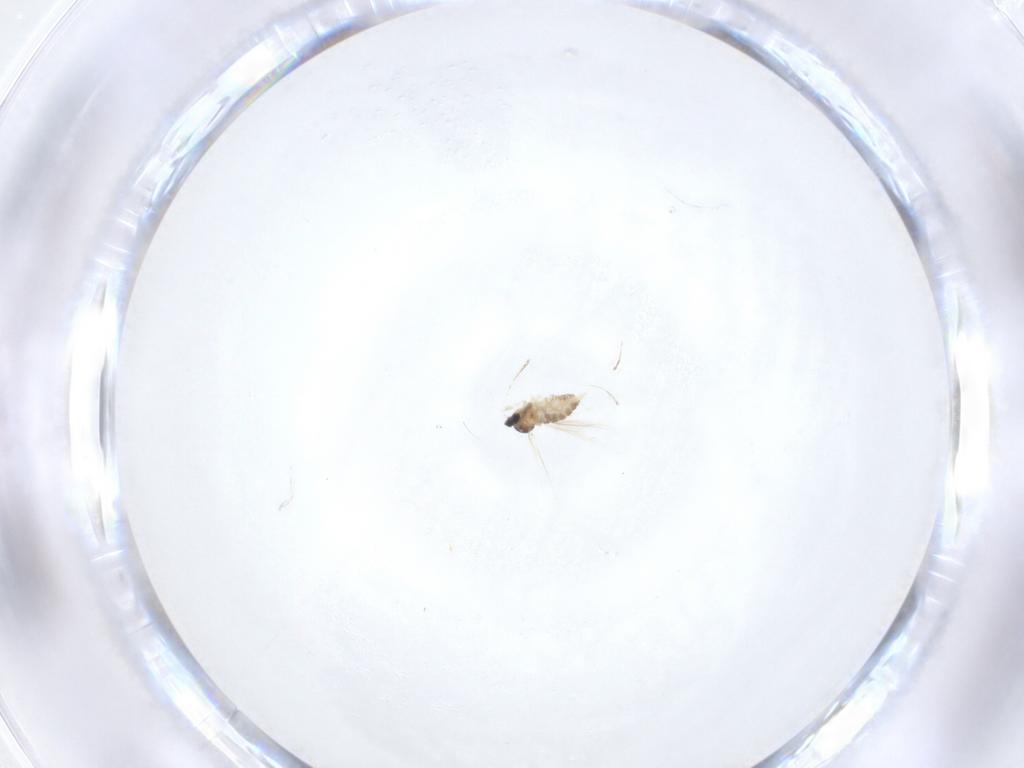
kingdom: Animalia
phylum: Arthropoda
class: Insecta
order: Diptera
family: Cecidomyiidae
